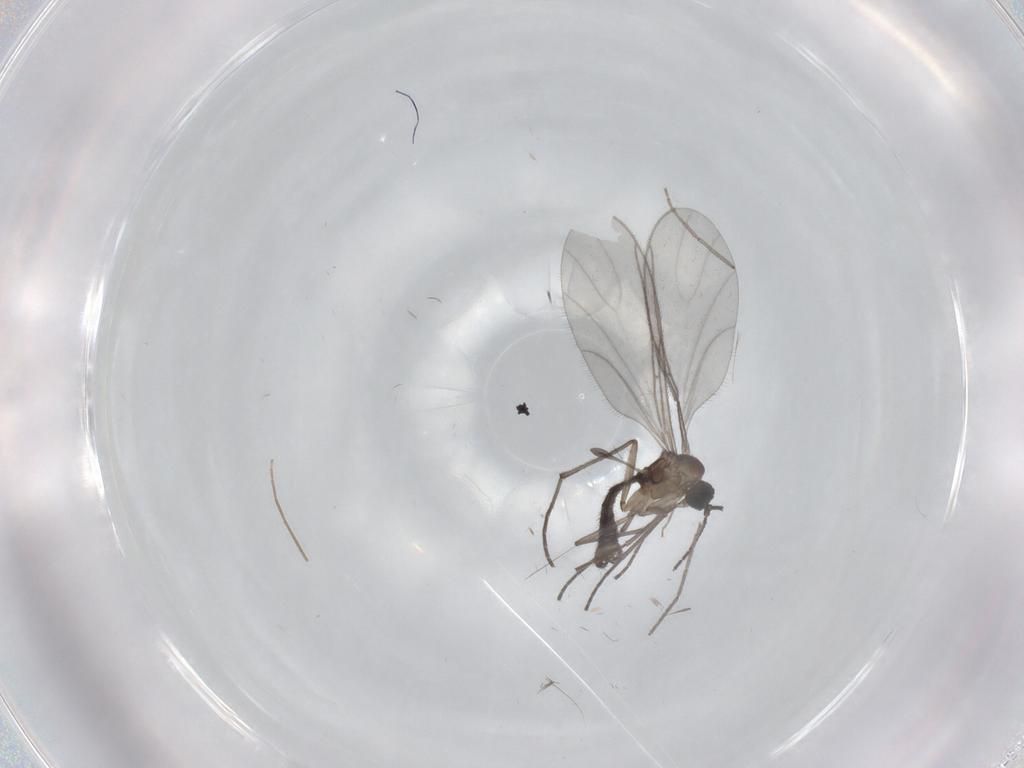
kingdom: Animalia
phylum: Arthropoda
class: Insecta
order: Diptera
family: Sciaridae
